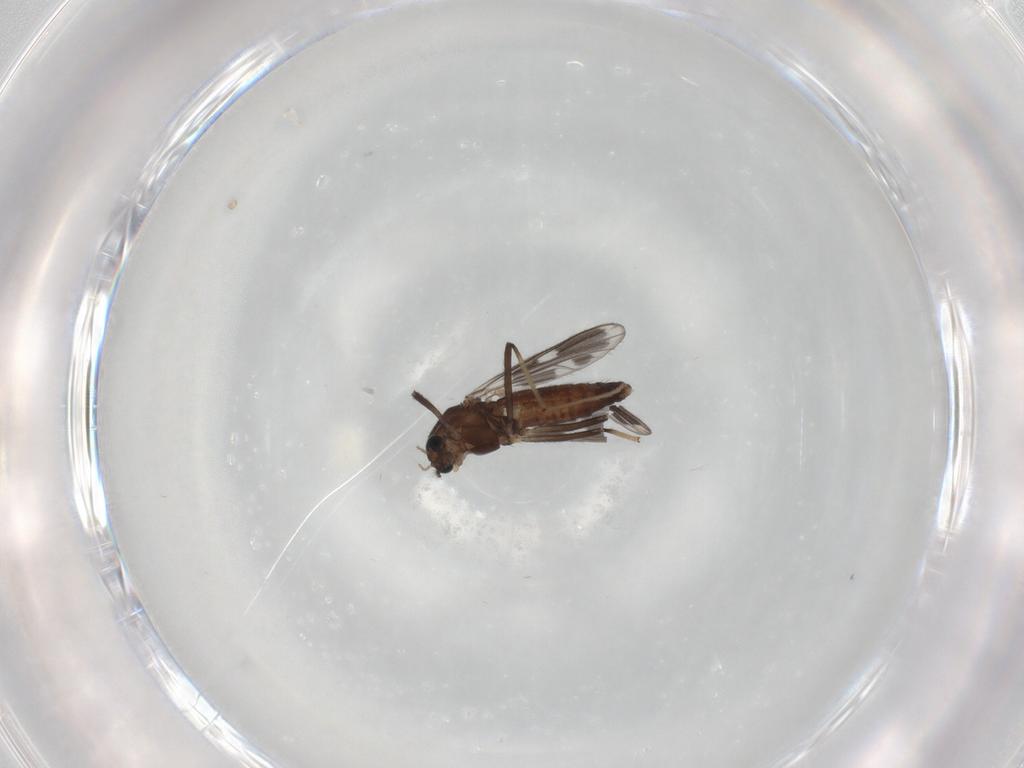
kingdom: Animalia
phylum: Arthropoda
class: Insecta
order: Diptera
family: Chironomidae
